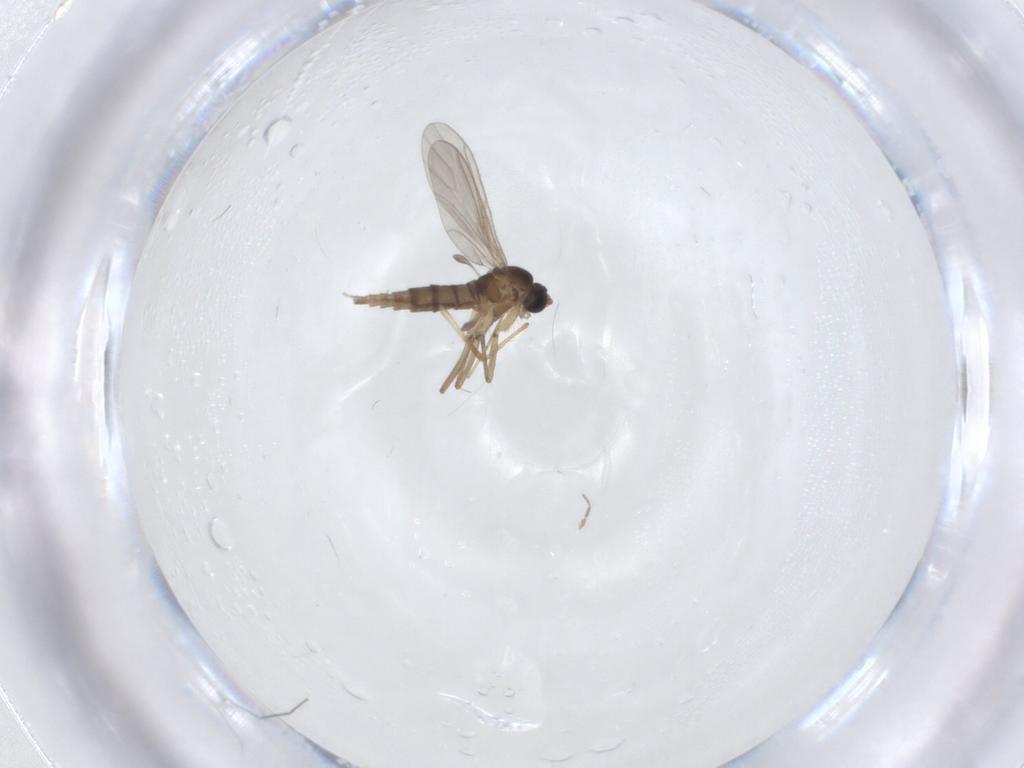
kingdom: Animalia
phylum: Arthropoda
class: Insecta
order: Diptera
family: Chironomidae
